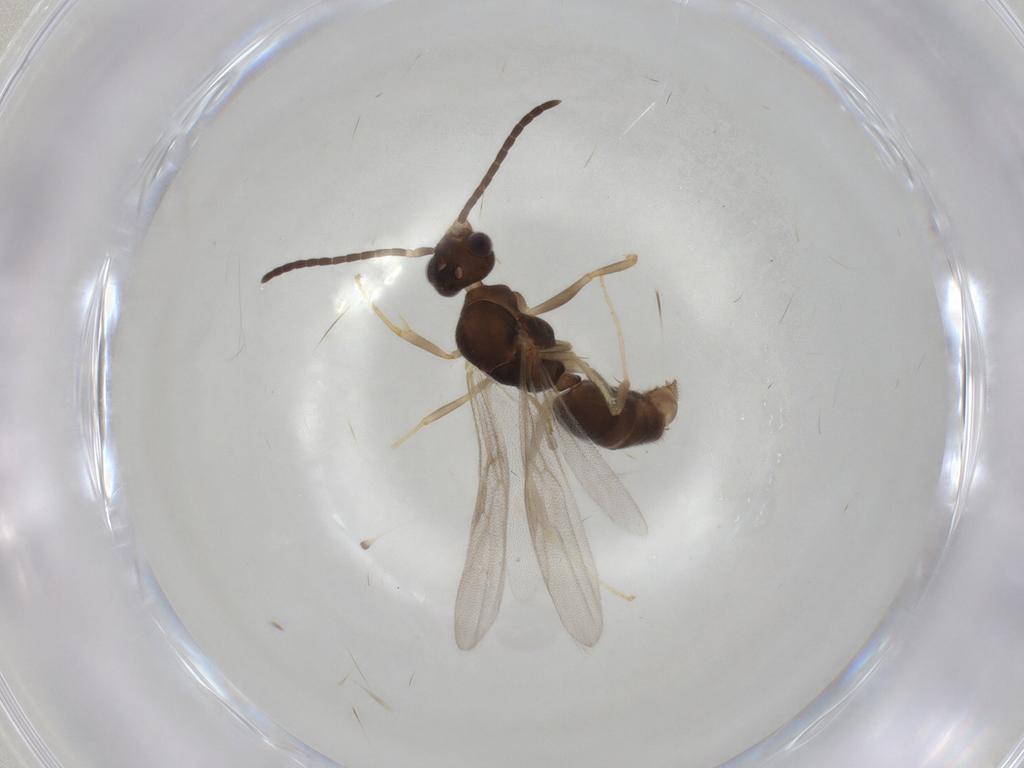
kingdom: Animalia
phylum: Arthropoda
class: Insecta
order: Hymenoptera
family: Formicidae
